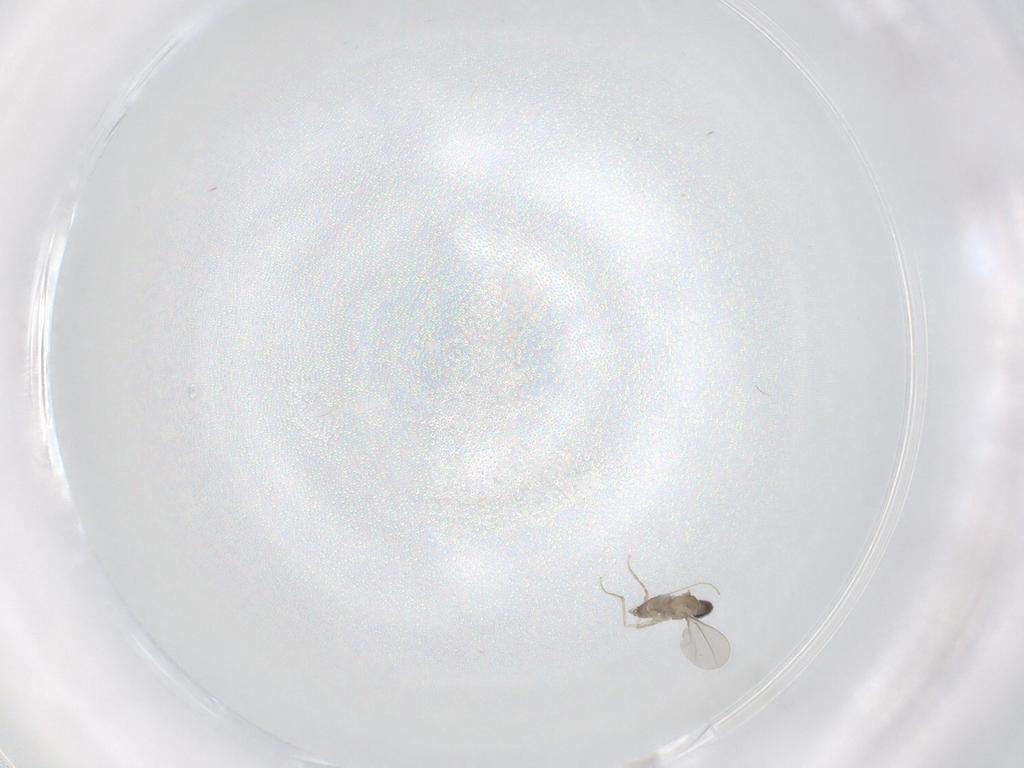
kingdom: Animalia
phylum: Arthropoda
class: Insecta
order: Diptera
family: Cecidomyiidae
